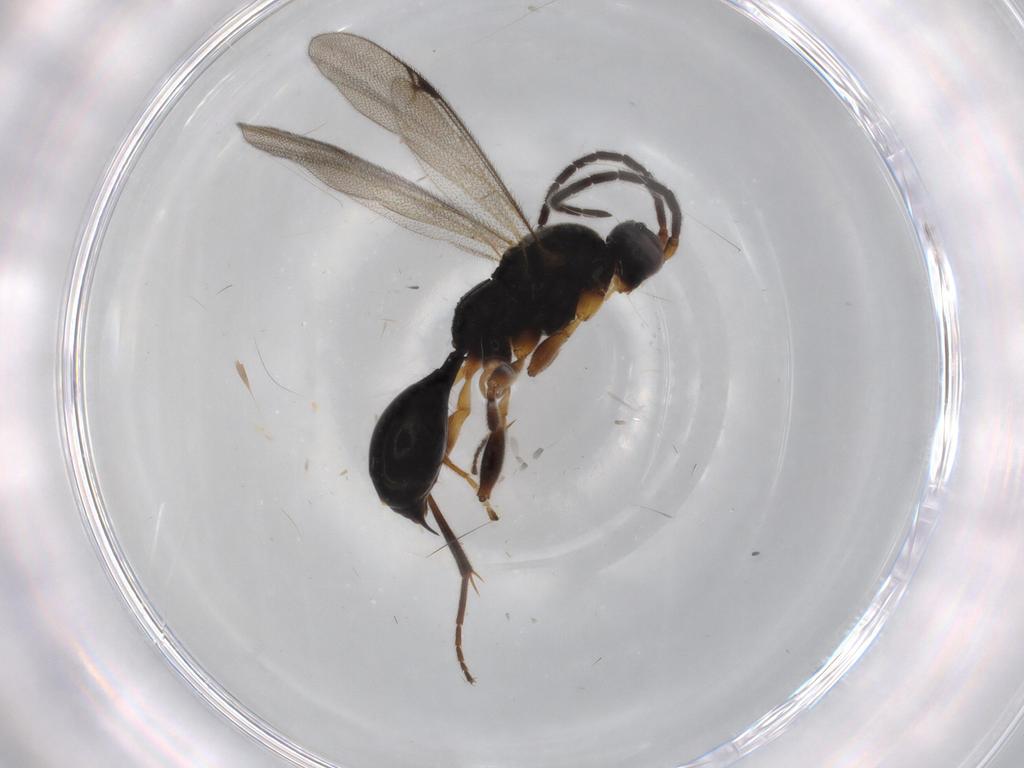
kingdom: Animalia
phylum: Arthropoda
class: Insecta
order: Hymenoptera
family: Proctotrupidae
